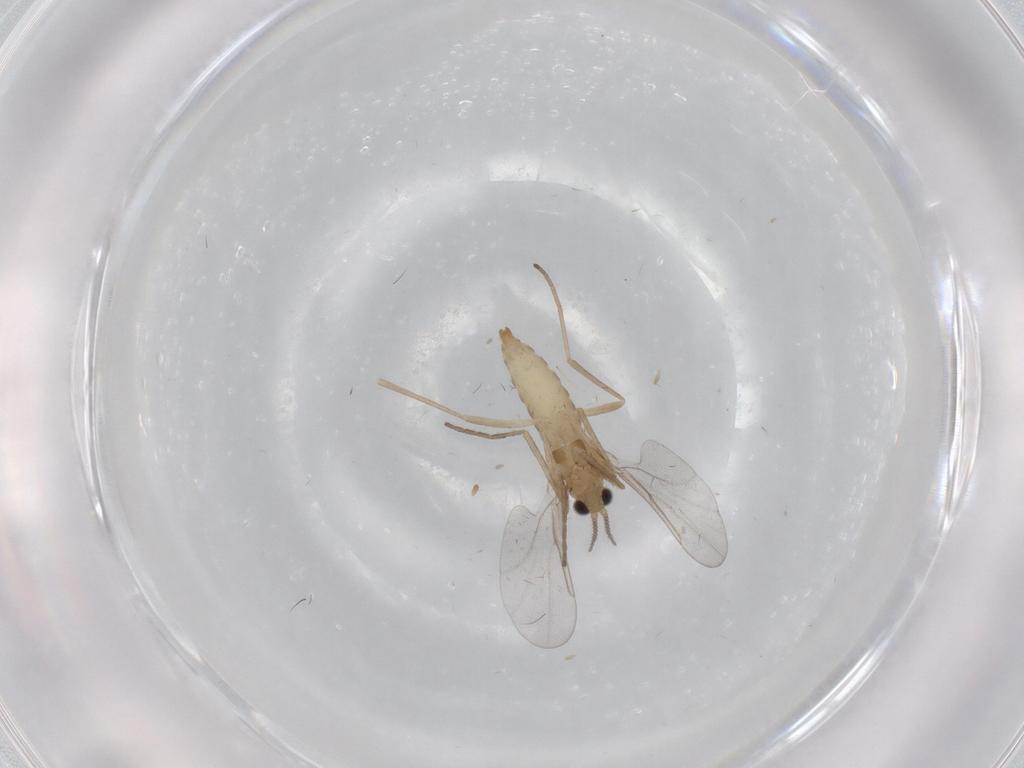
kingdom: Animalia
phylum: Arthropoda
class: Insecta
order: Diptera
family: Cecidomyiidae
